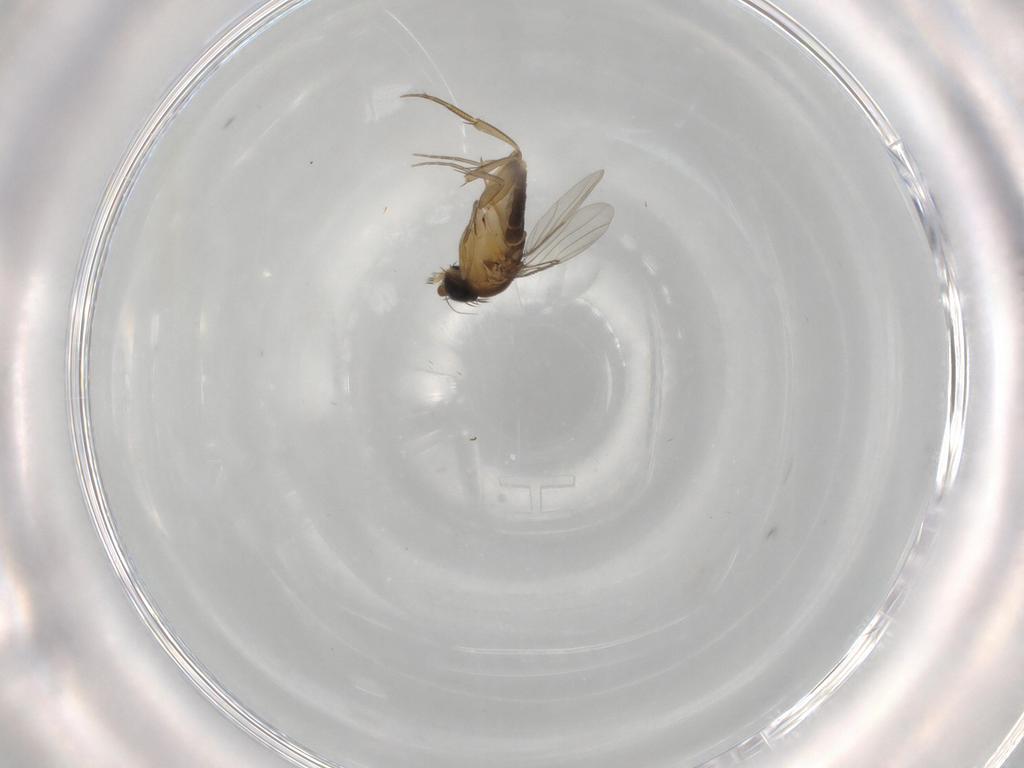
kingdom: Animalia
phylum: Arthropoda
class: Insecta
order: Diptera
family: Phoridae
